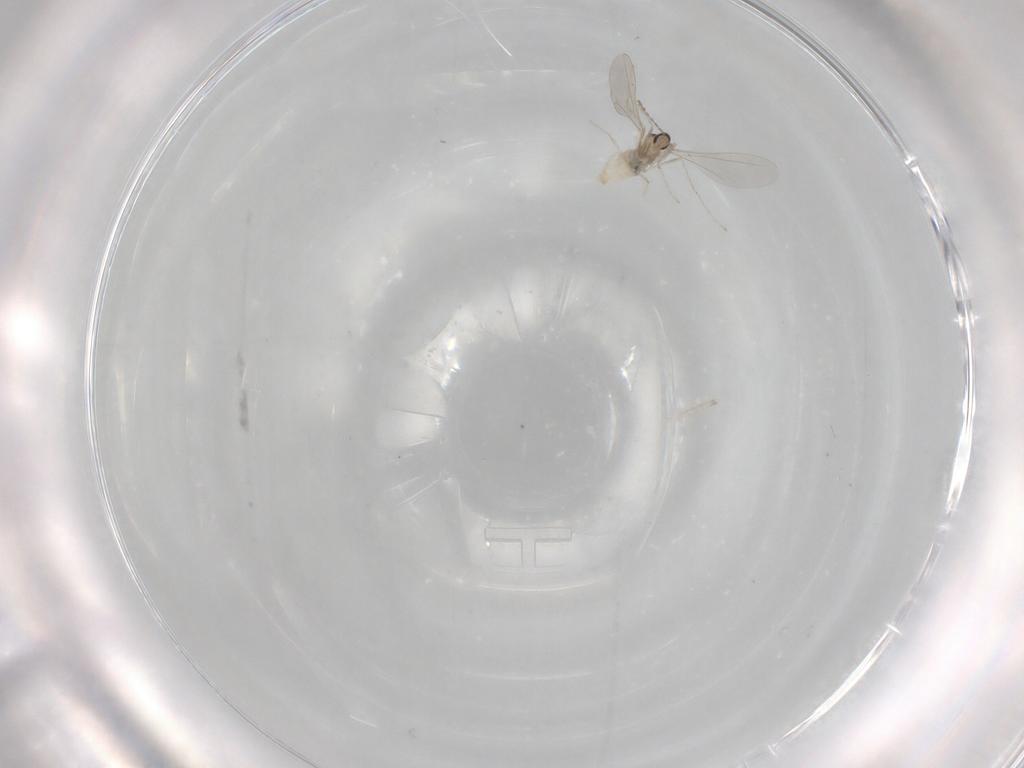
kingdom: Animalia
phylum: Arthropoda
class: Insecta
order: Diptera
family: Cecidomyiidae
